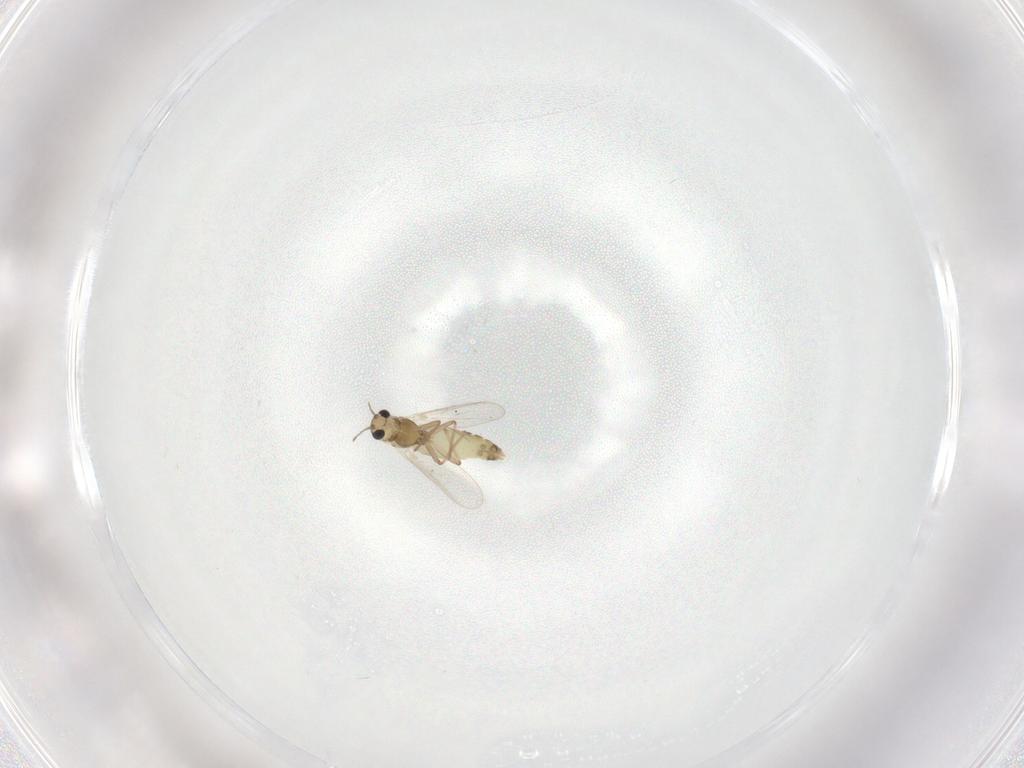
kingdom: Animalia
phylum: Arthropoda
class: Insecta
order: Diptera
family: Chironomidae
